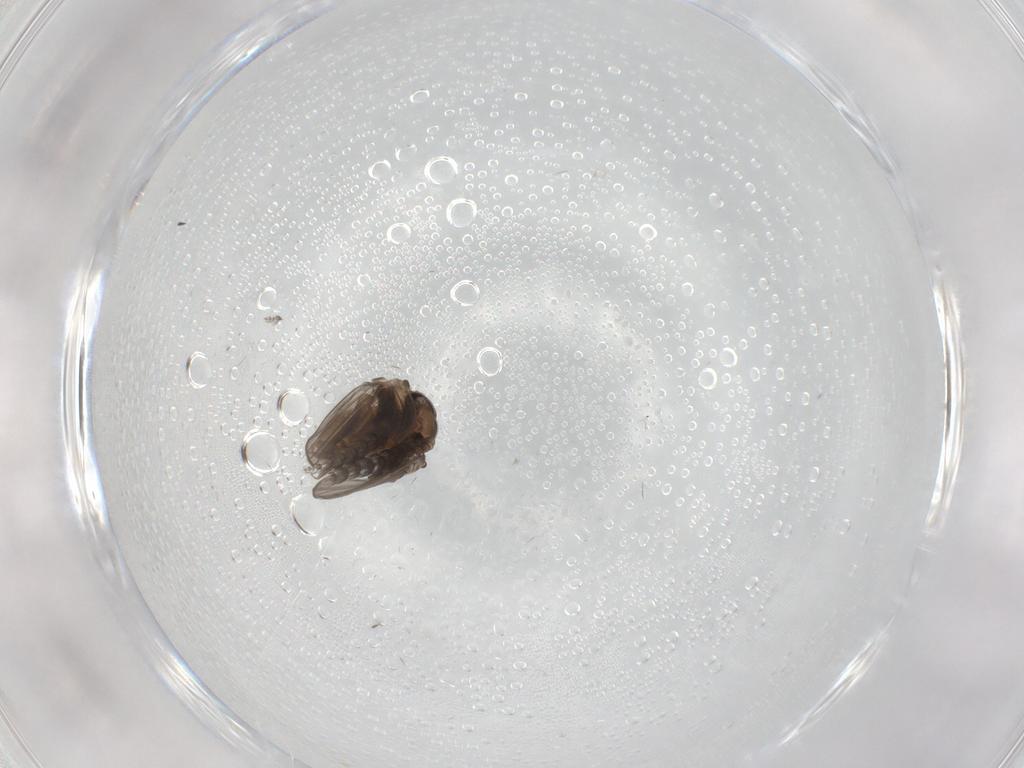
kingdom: Animalia
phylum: Arthropoda
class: Insecta
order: Diptera
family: Psychodidae
